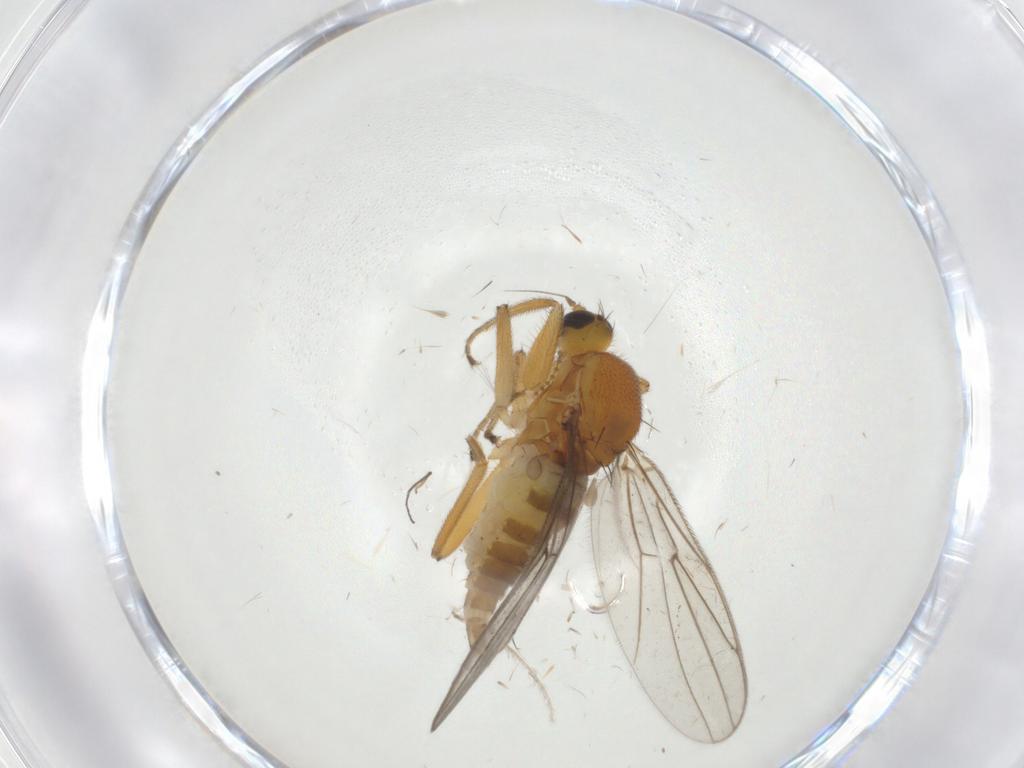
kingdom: Animalia
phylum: Arthropoda
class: Insecta
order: Diptera
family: Hybotidae
